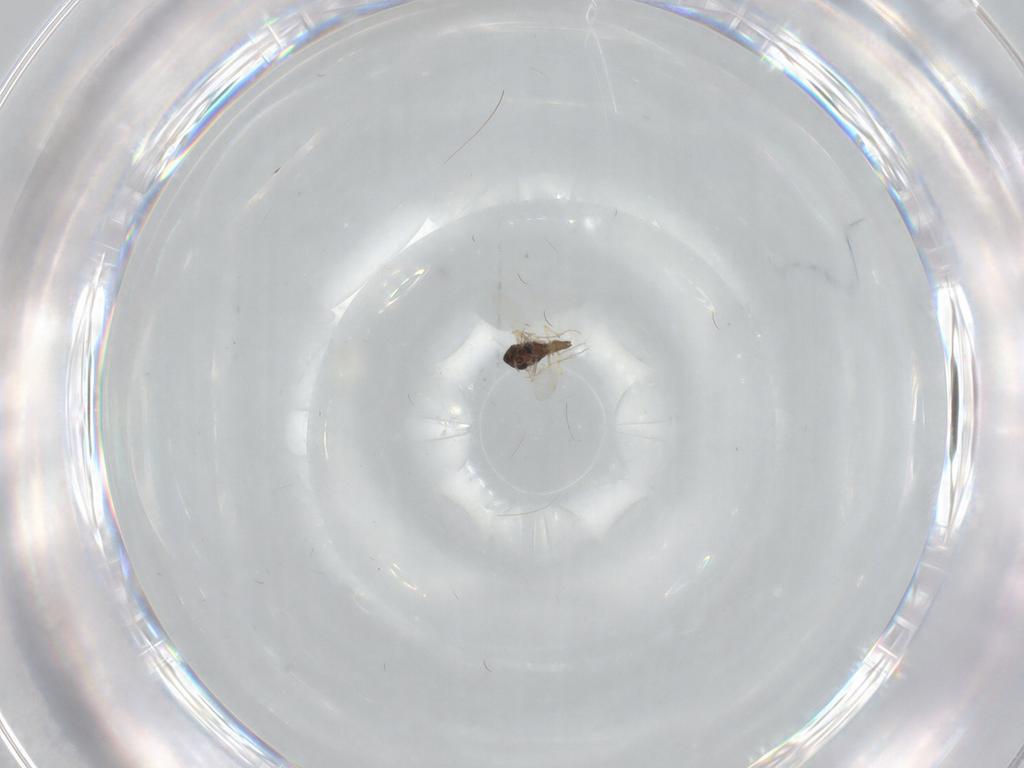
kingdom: Animalia
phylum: Arthropoda
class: Insecta
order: Diptera
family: Chironomidae
